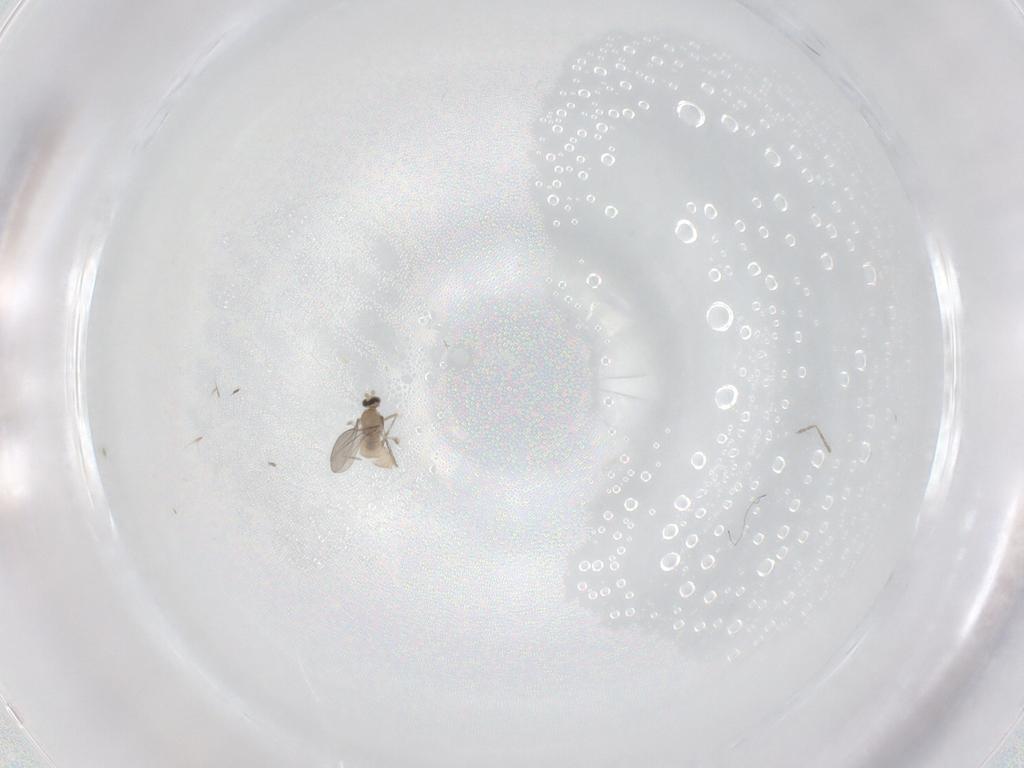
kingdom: Animalia
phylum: Arthropoda
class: Insecta
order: Diptera
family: Cecidomyiidae
